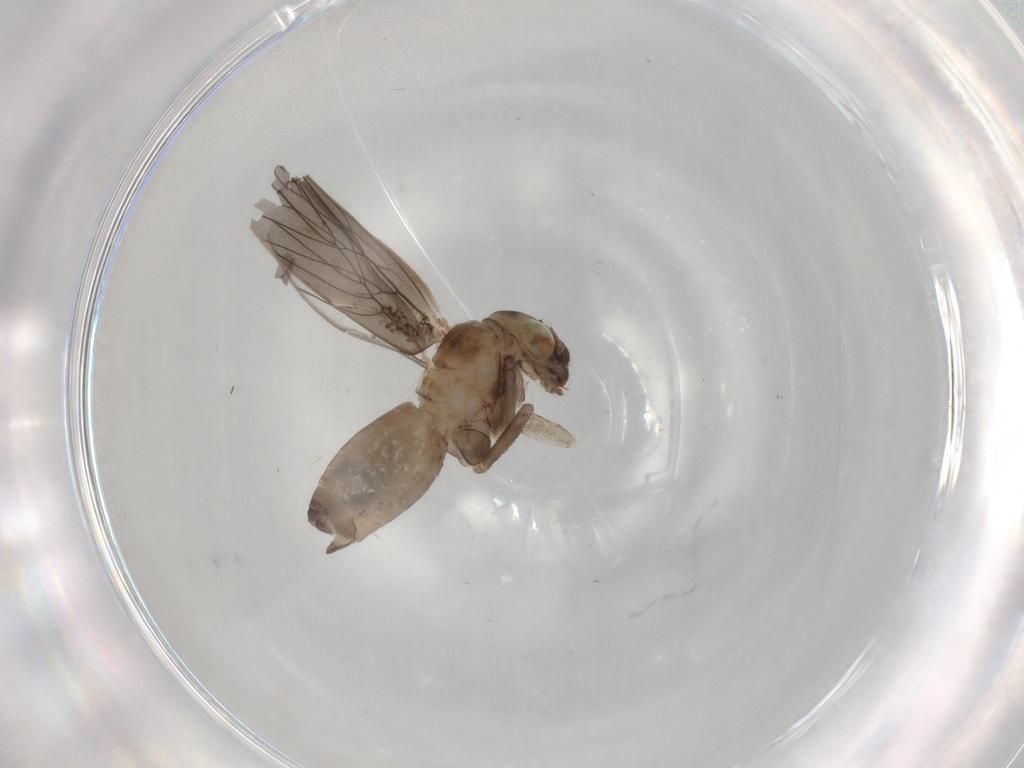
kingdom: Animalia
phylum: Arthropoda
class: Insecta
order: Psocodea
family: Lepidopsocidae
